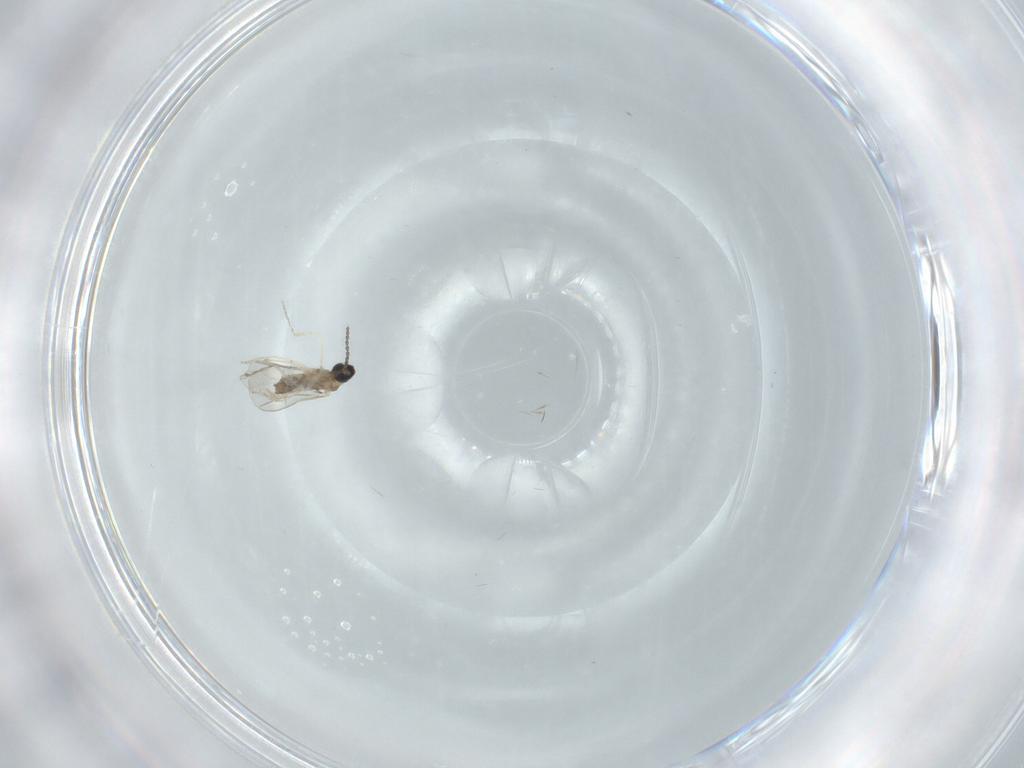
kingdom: Animalia
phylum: Arthropoda
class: Insecta
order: Diptera
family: Cecidomyiidae
